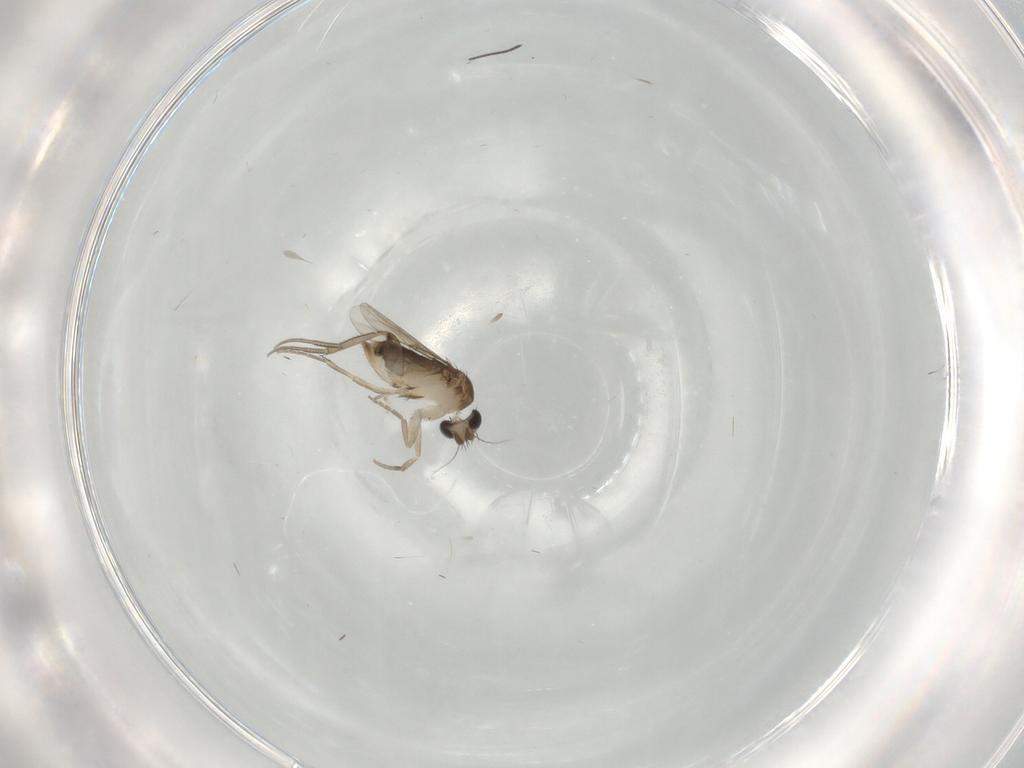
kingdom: Animalia
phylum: Arthropoda
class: Insecta
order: Diptera
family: Phoridae
